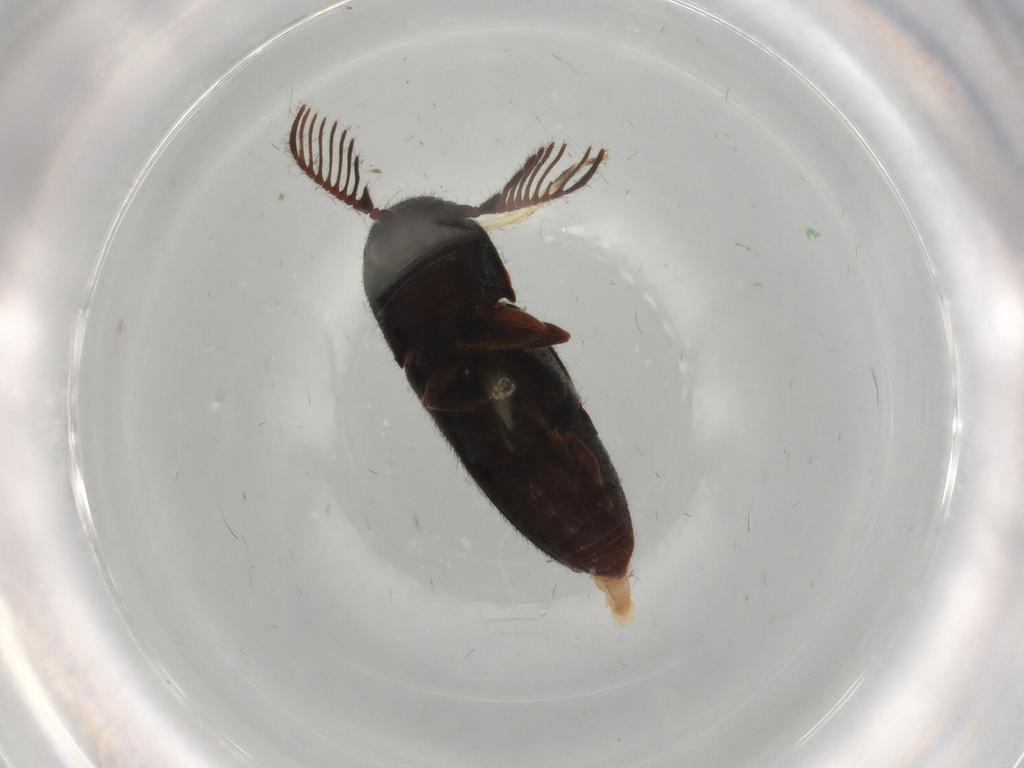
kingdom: Animalia
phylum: Arthropoda
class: Insecta
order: Coleoptera
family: Eucnemidae
